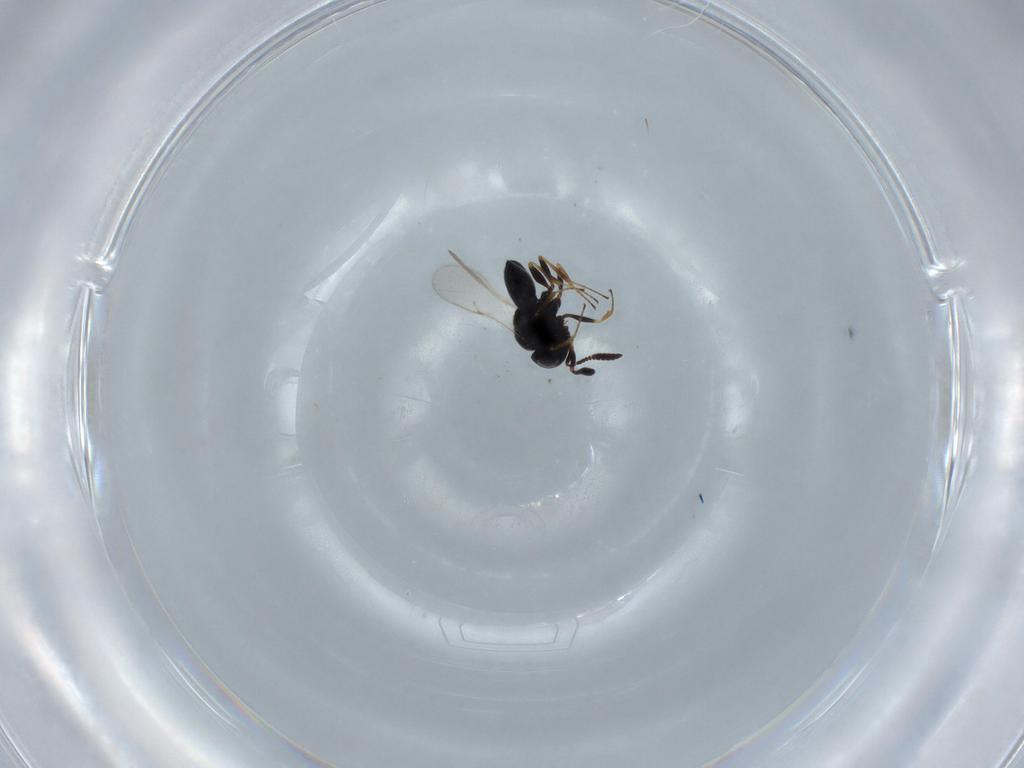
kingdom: Animalia
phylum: Arthropoda
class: Insecta
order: Hymenoptera
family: Scelionidae
